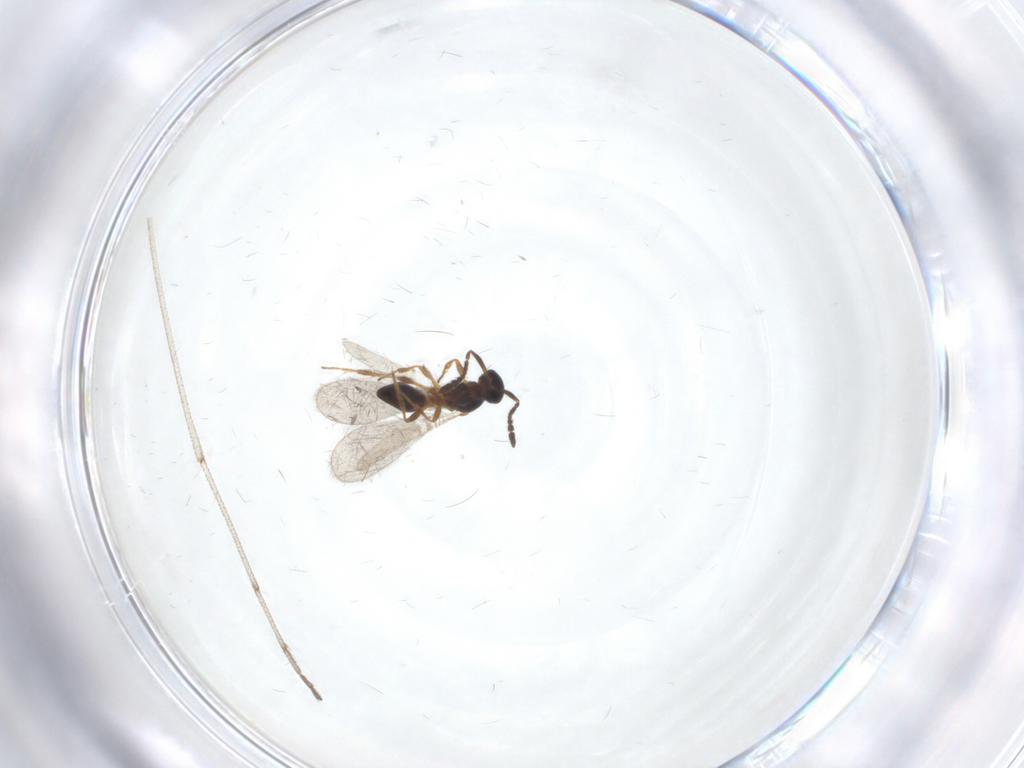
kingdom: Animalia
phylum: Arthropoda
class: Insecta
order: Hymenoptera
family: Platygastridae
